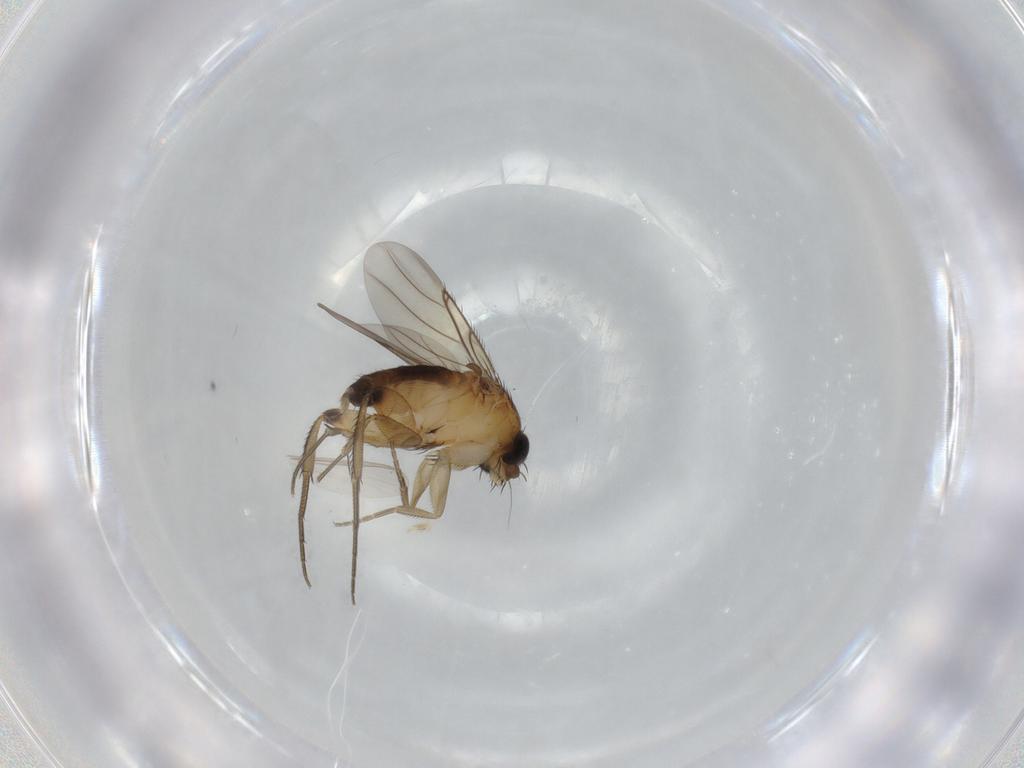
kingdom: Animalia
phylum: Arthropoda
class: Insecta
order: Diptera
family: Phoridae
